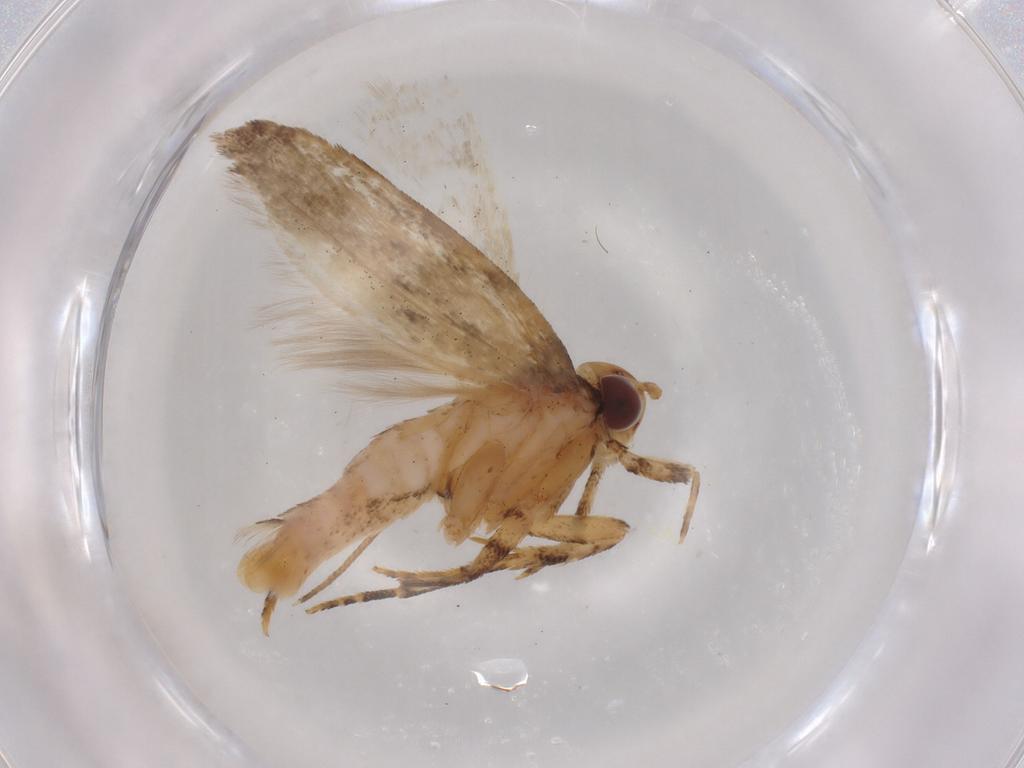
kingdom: Animalia
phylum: Arthropoda
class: Insecta
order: Lepidoptera
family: Gelechiidae
